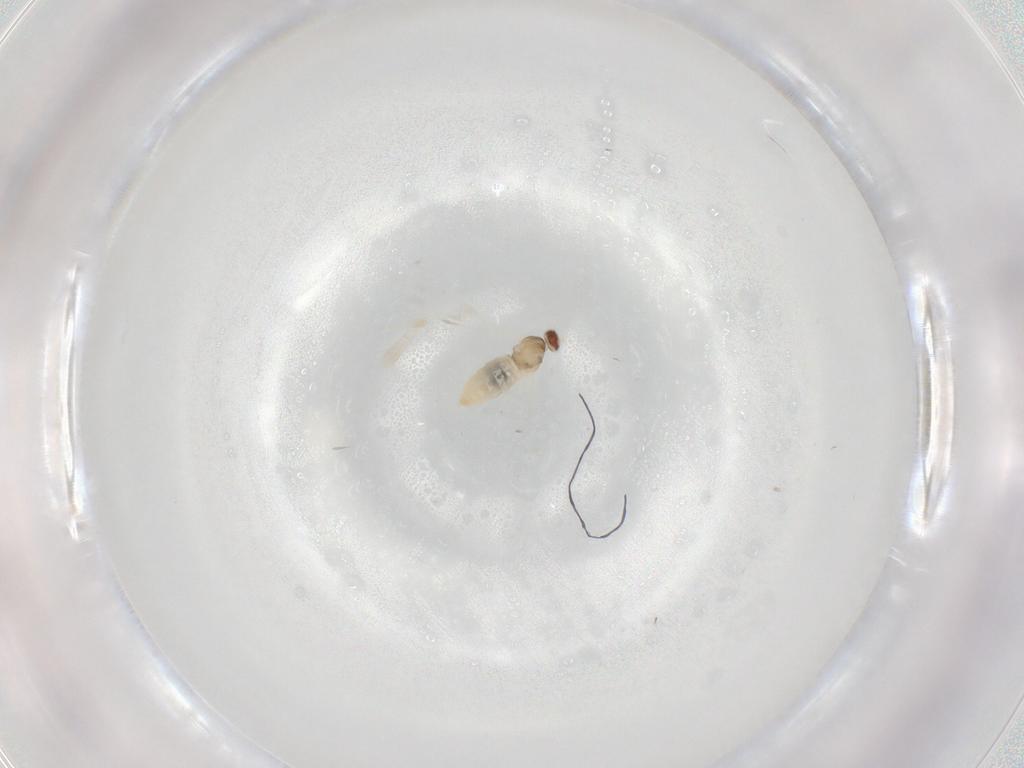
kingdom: Animalia
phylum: Arthropoda
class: Insecta
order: Diptera
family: Cecidomyiidae
